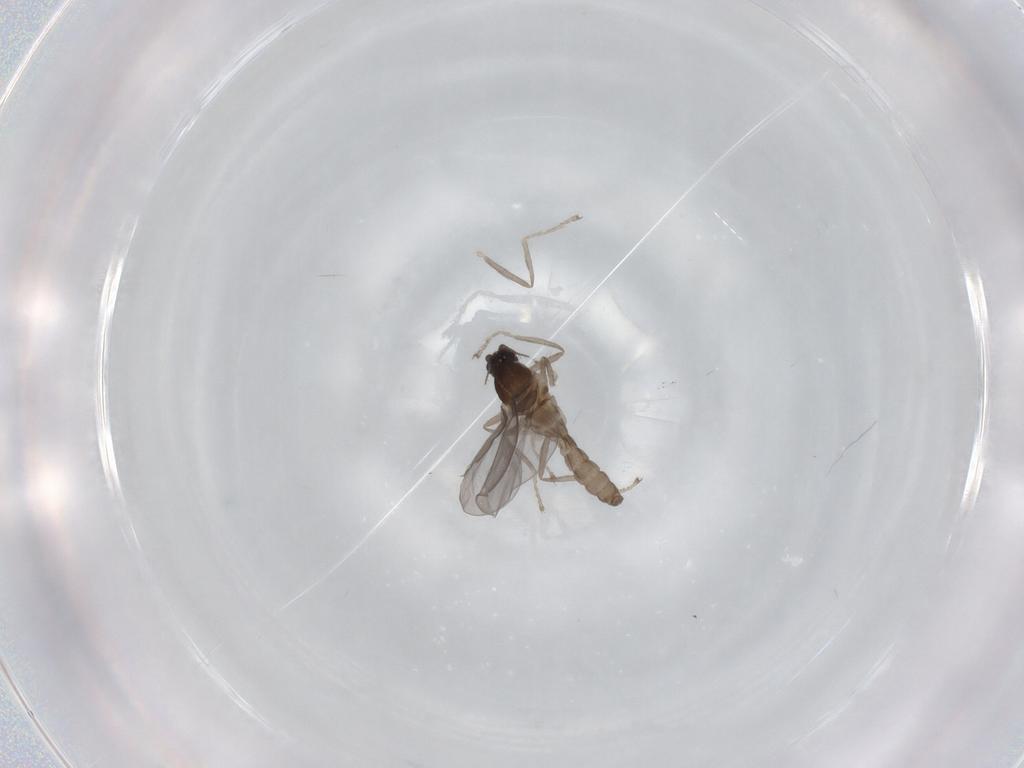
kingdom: Animalia
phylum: Arthropoda
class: Insecta
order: Diptera
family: Cecidomyiidae
